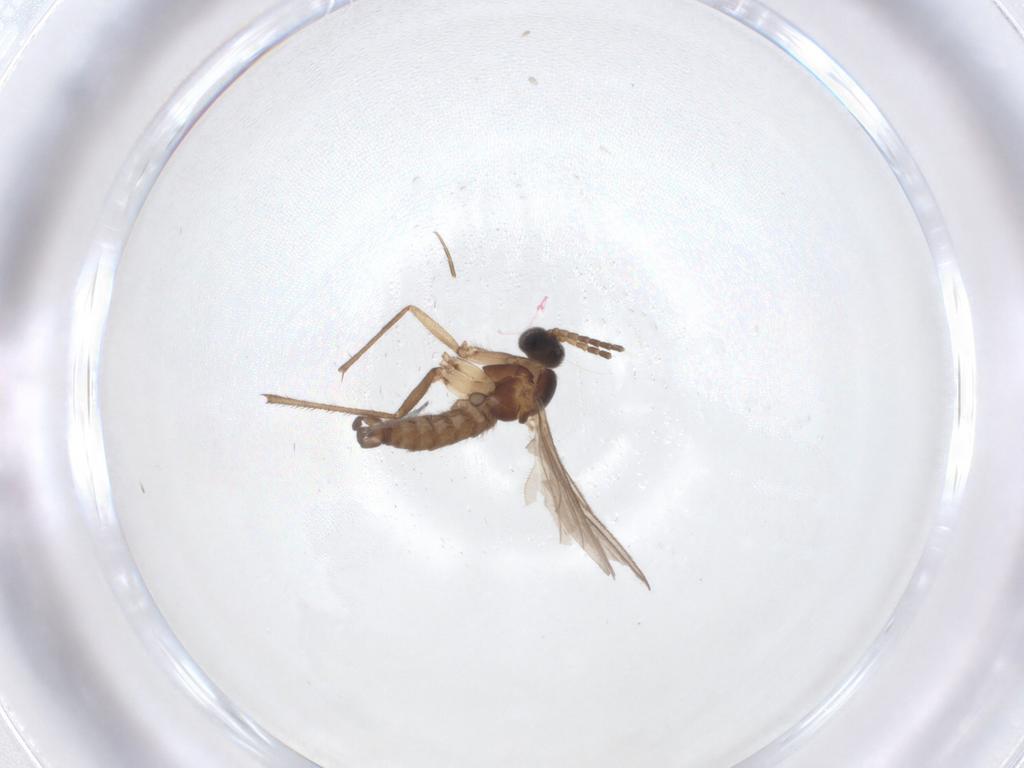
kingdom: Animalia
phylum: Arthropoda
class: Insecta
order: Diptera
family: Sciaridae
